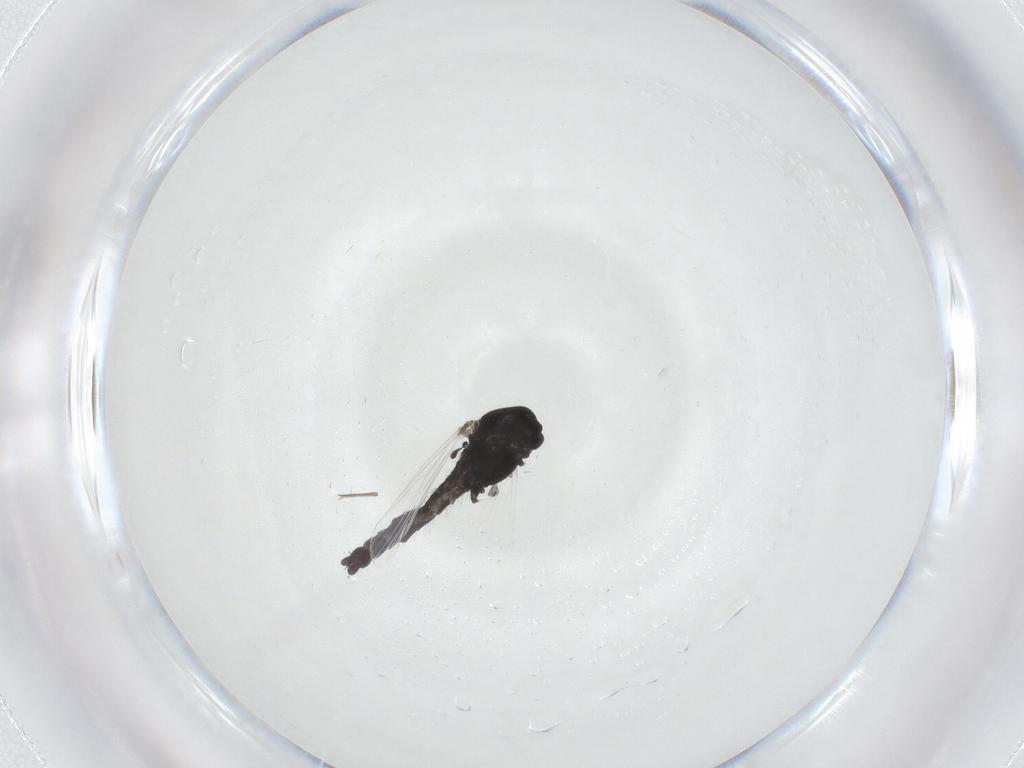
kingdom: Animalia
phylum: Arthropoda
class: Insecta
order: Diptera
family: Chironomidae
